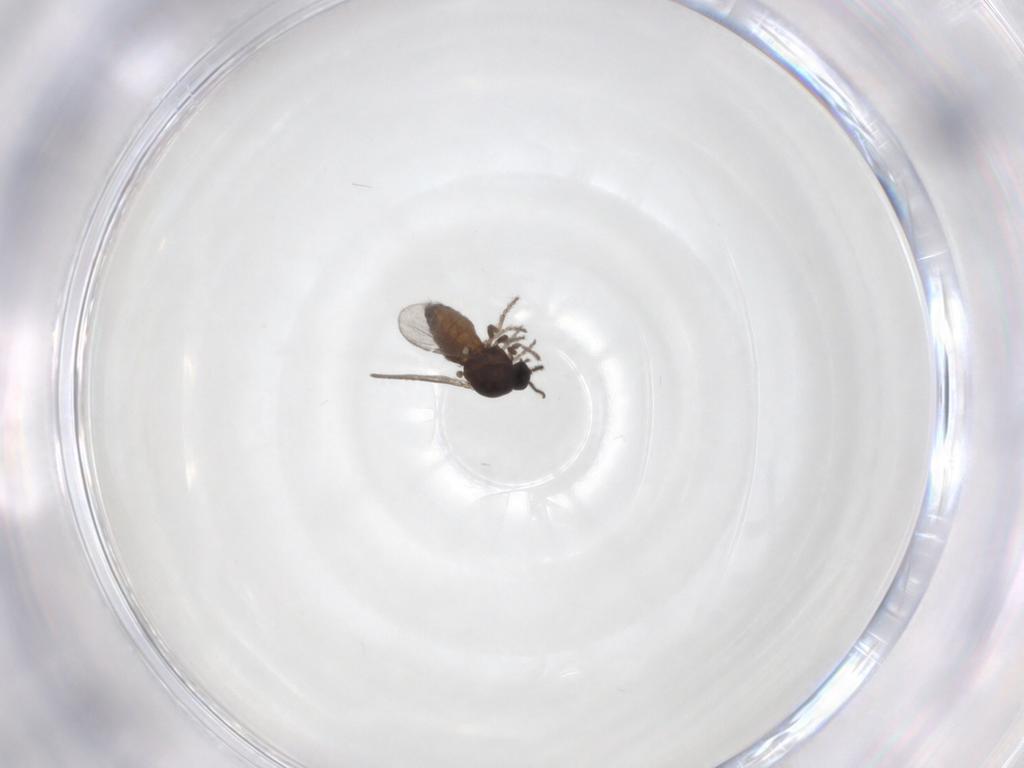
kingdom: Animalia
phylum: Arthropoda
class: Insecta
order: Diptera
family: Ceratopogonidae
